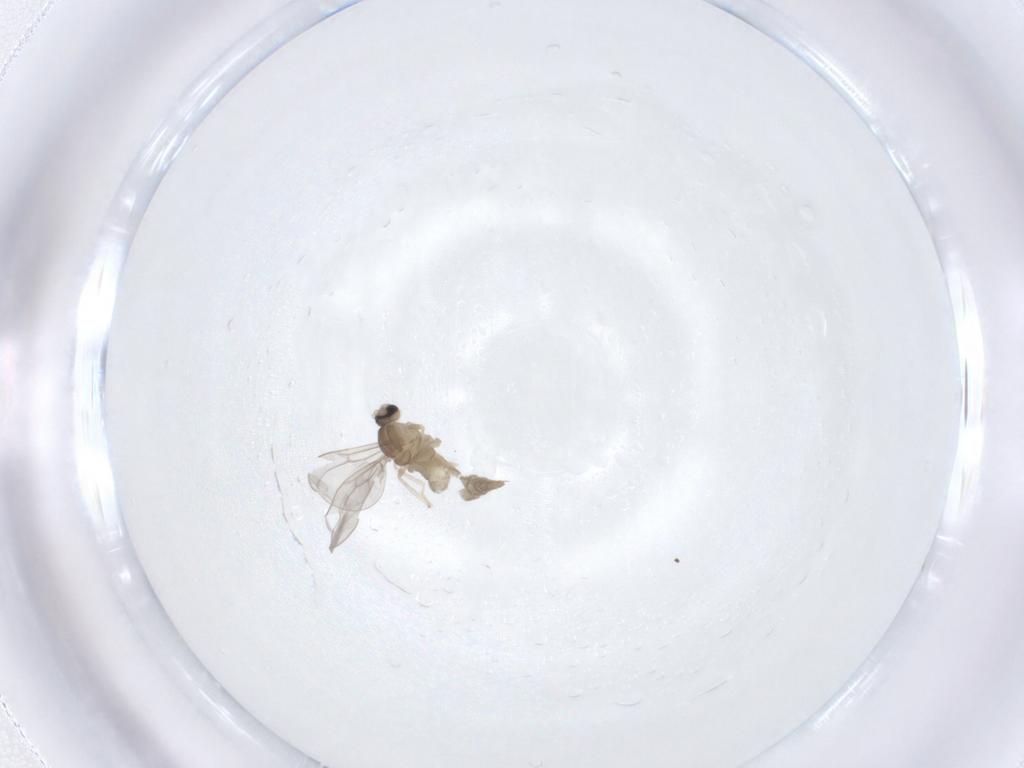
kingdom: Animalia
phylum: Arthropoda
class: Insecta
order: Diptera
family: Cecidomyiidae
